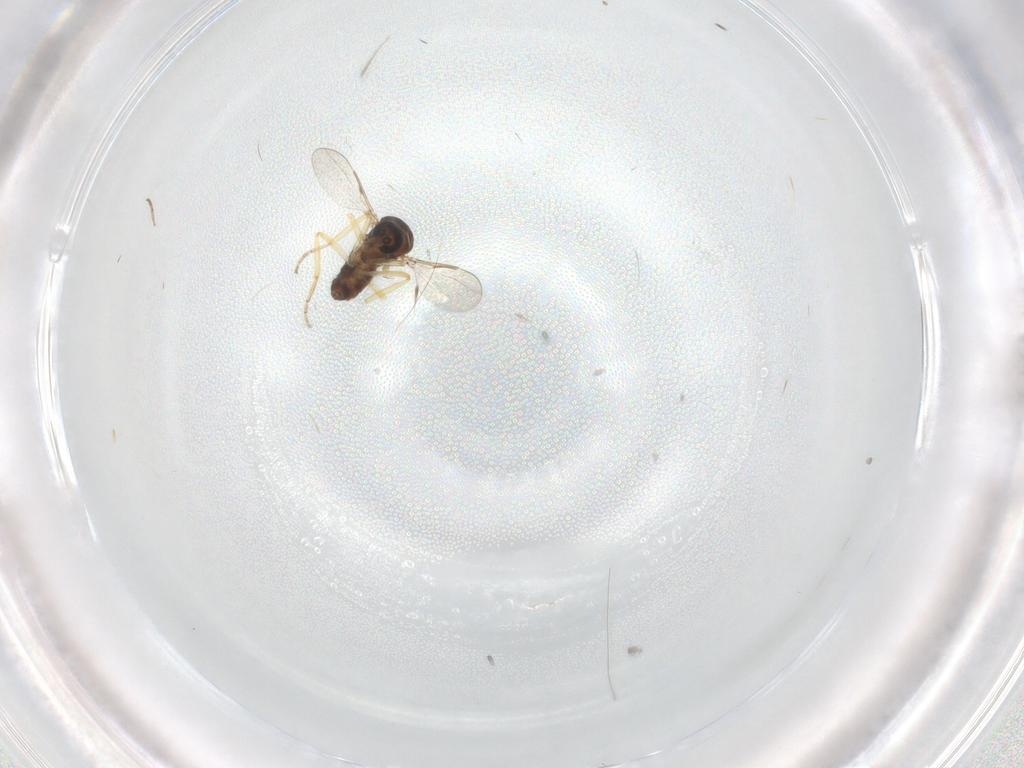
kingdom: Animalia
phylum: Arthropoda
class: Insecta
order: Diptera
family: Ceratopogonidae
